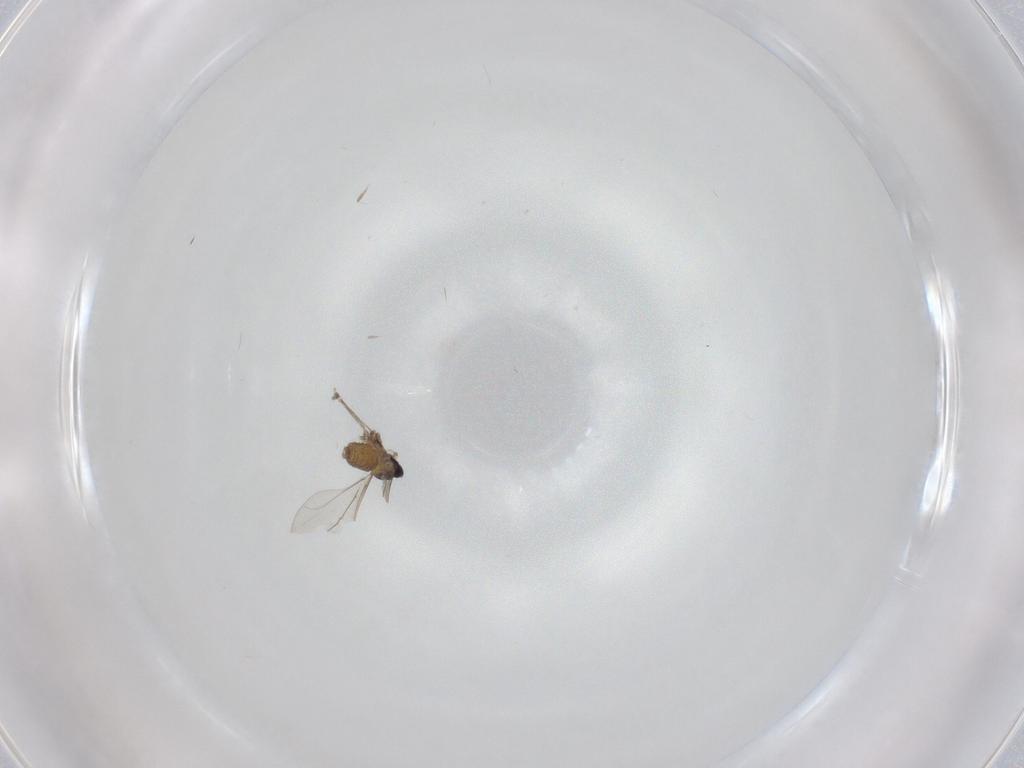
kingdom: Animalia
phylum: Arthropoda
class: Insecta
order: Diptera
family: Cecidomyiidae
